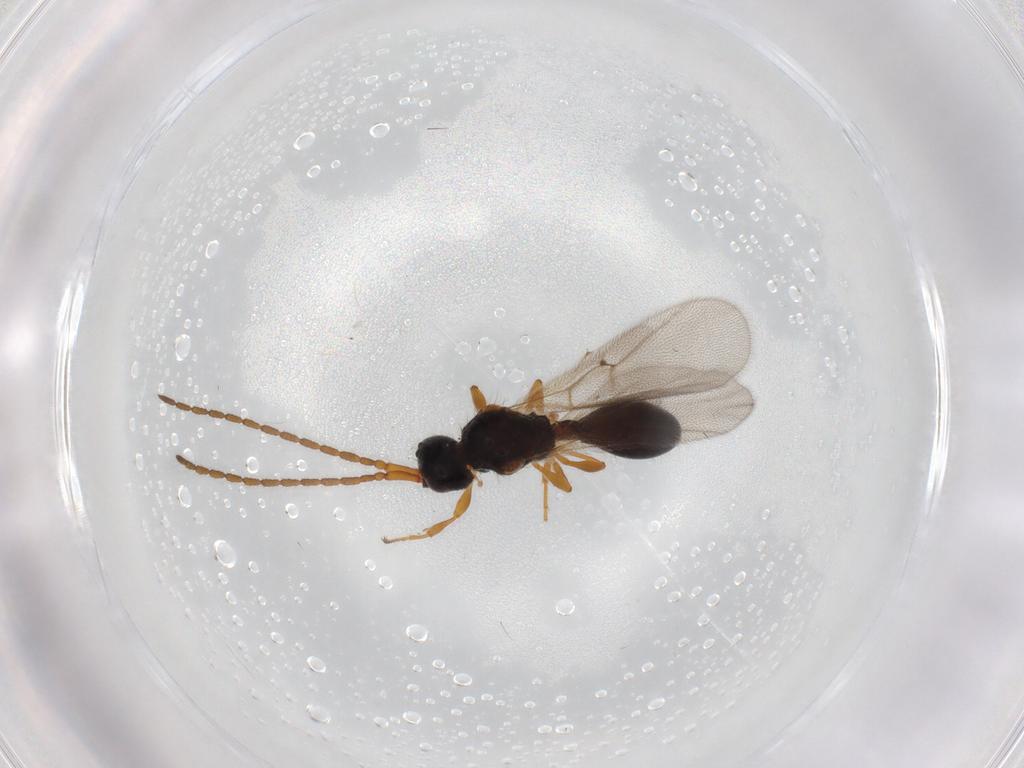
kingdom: Animalia
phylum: Arthropoda
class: Insecta
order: Hymenoptera
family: Diapriidae
